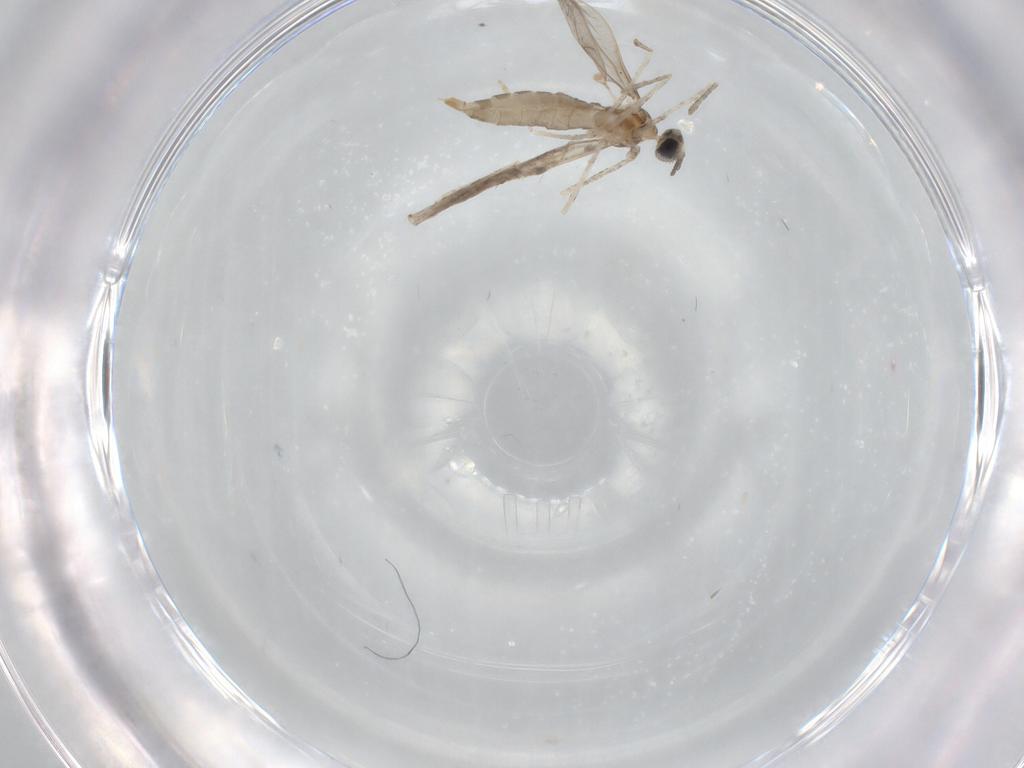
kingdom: Animalia
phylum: Arthropoda
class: Insecta
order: Diptera
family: Cecidomyiidae
